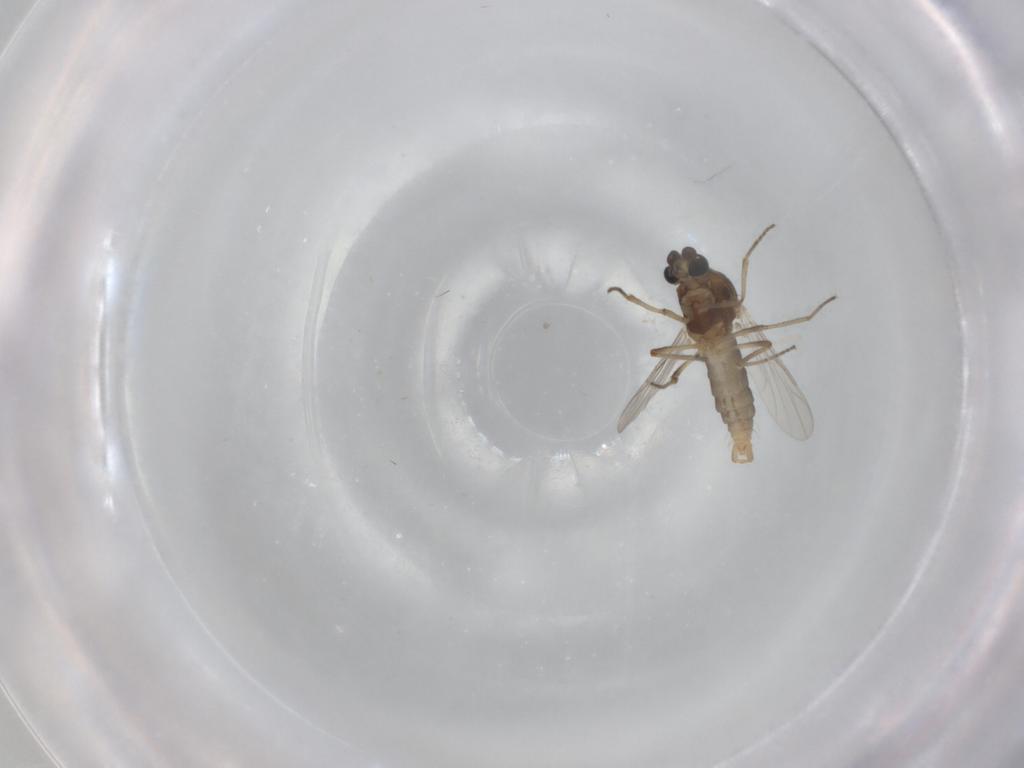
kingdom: Animalia
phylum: Arthropoda
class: Insecta
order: Diptera
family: Ceratopogonidae
